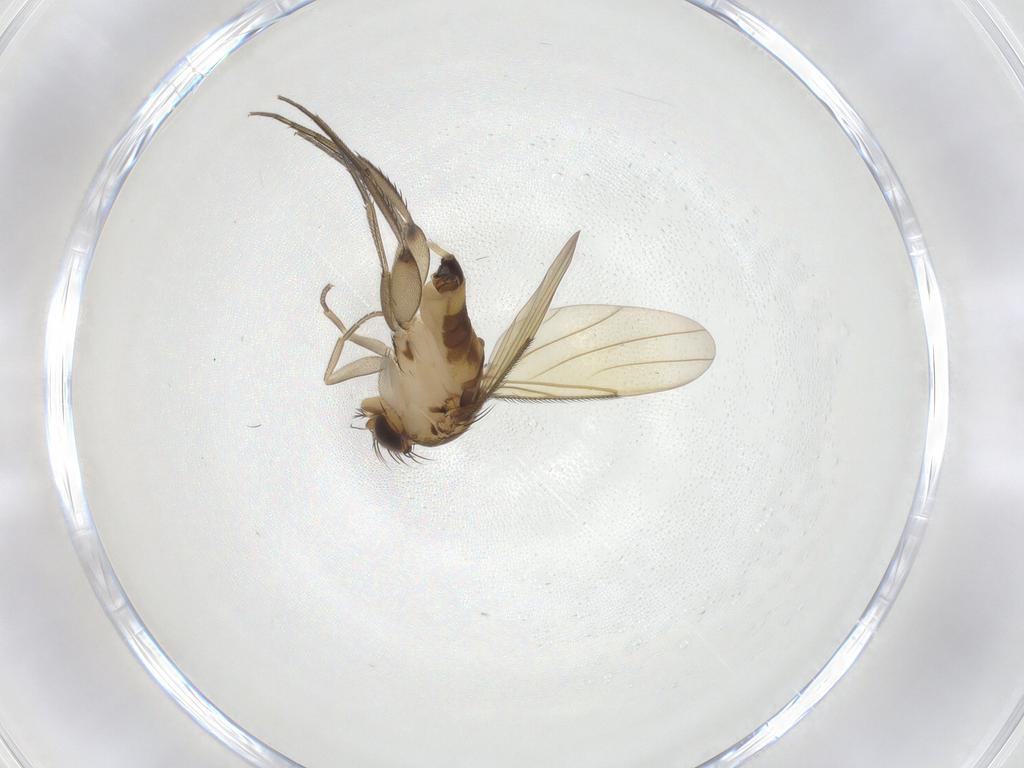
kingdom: Animalia
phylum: Arthropoda
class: Insecta
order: Diptera
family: Phoridae
